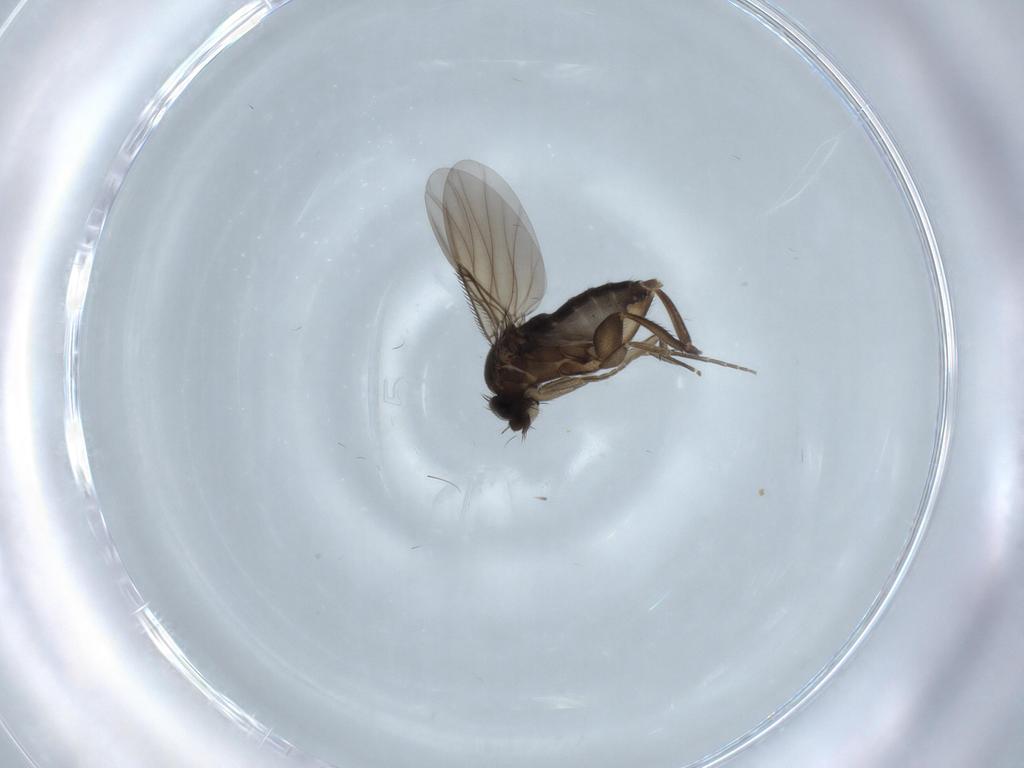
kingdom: Animalia
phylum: Arthropoda
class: Insecta
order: Diptera
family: Phoridae
